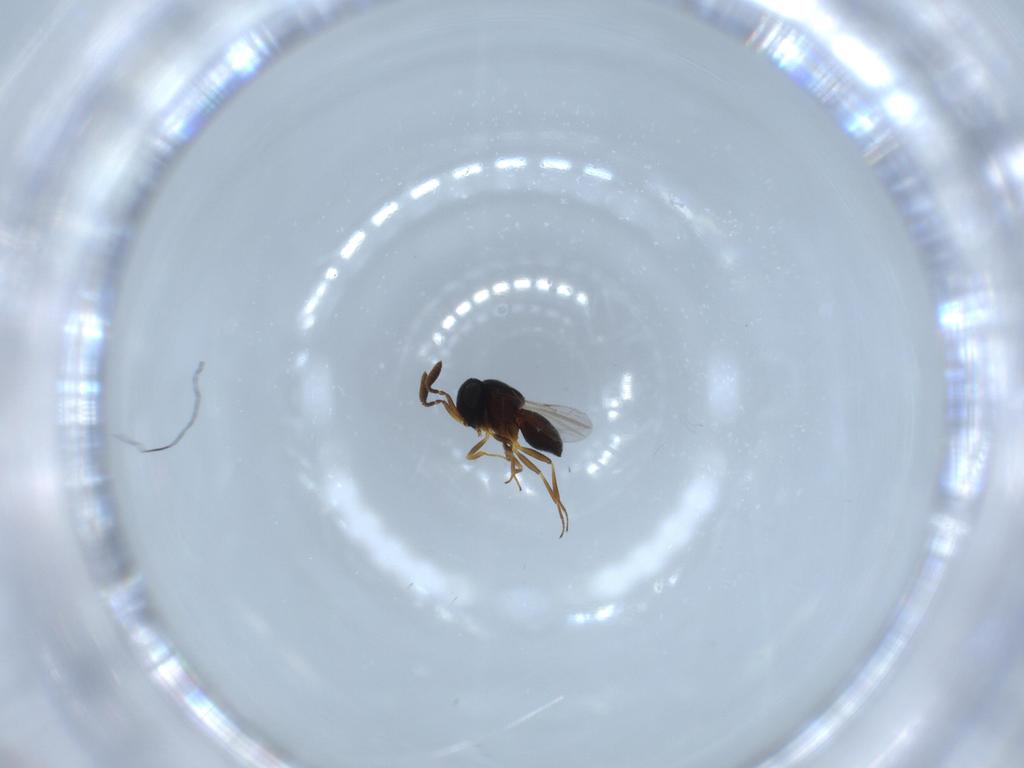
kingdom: Animalia
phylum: Arthropoda
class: Insecta
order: Hymenoptera
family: Scelionidae
